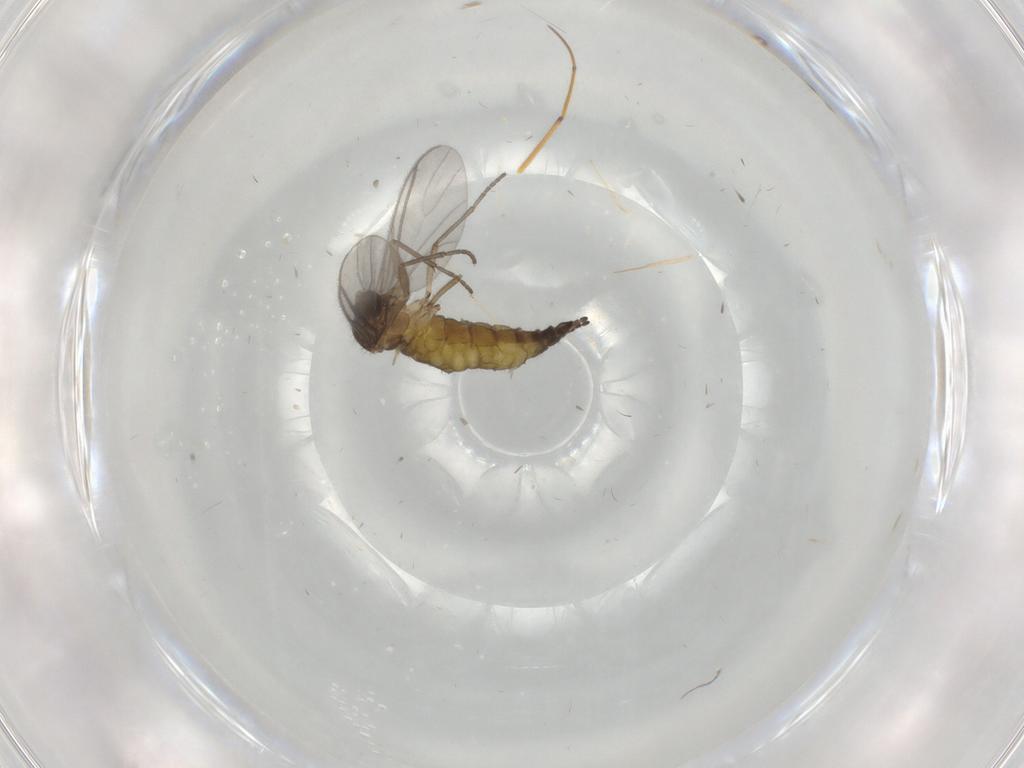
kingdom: Animalia
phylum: Arthropoda
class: Insecta
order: Diptera
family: Sciaridae
